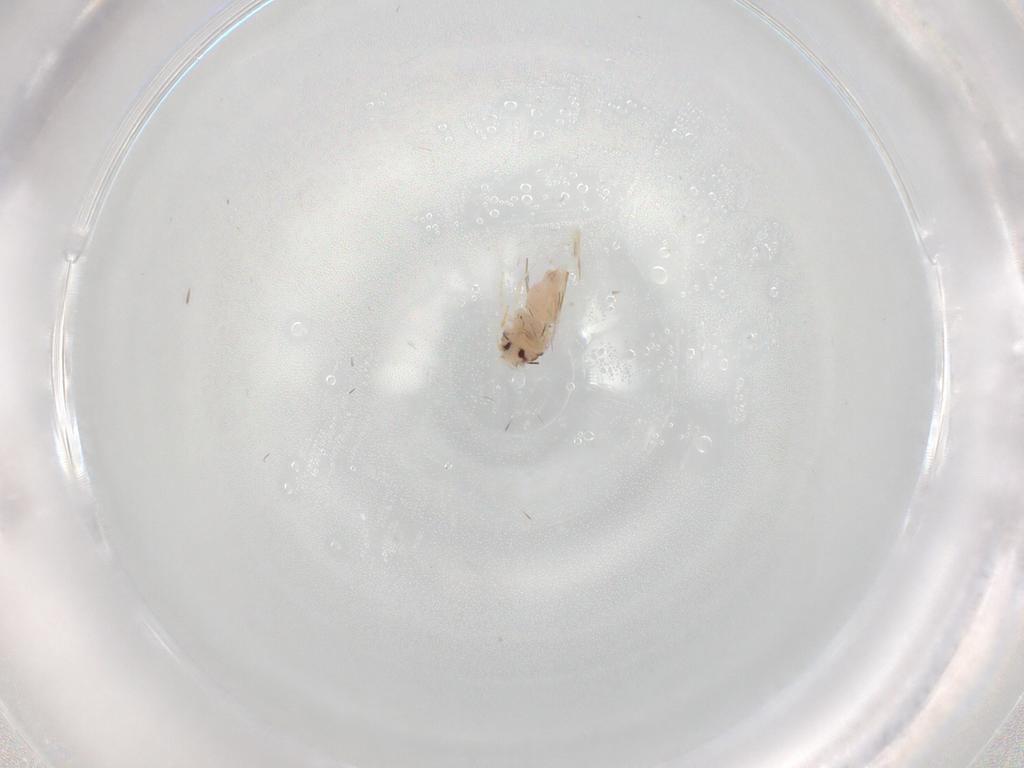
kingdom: Animalia
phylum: Arthropoda
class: Insecta
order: Hemiptera
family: Aleyrodidae
